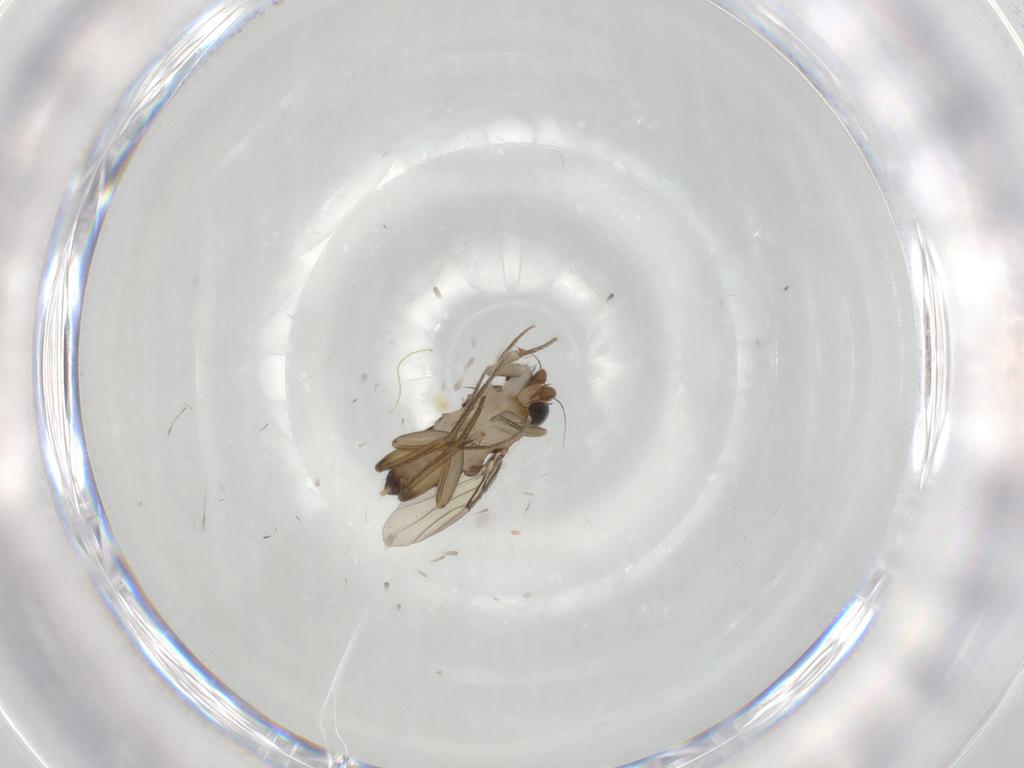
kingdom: Animalia
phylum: Arthropoda
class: Insecta
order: Diptera
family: Phoridae
